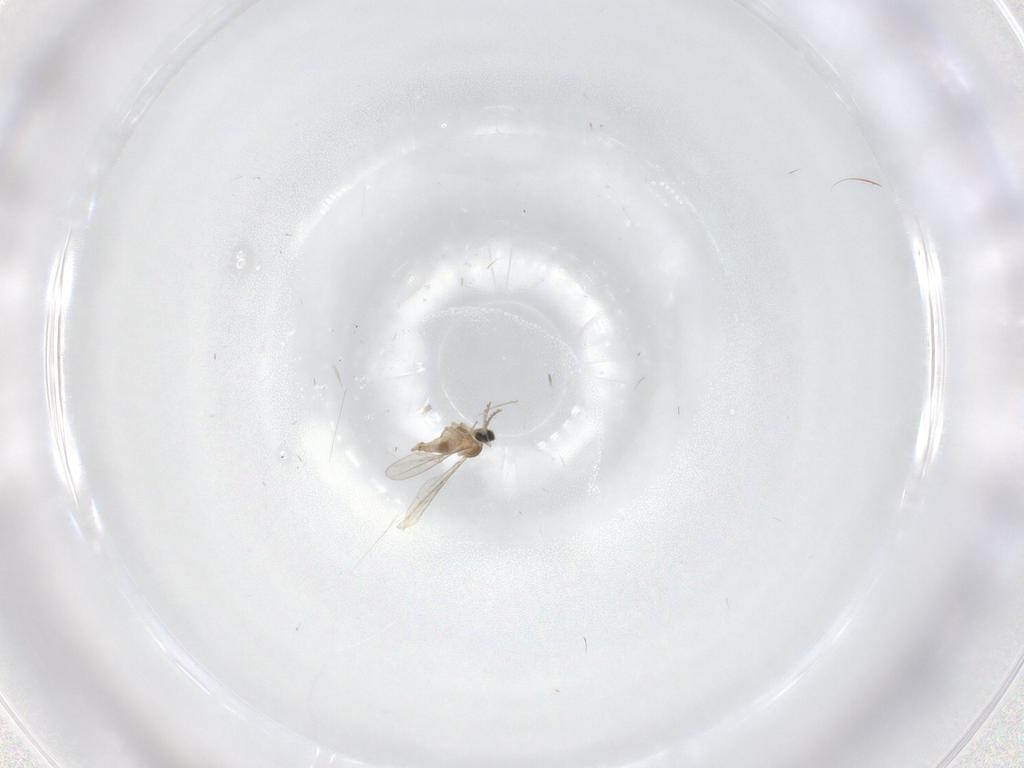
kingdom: Animalia
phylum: Arthropoda
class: Insecta
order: Diptera
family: Cecidomyiidae
